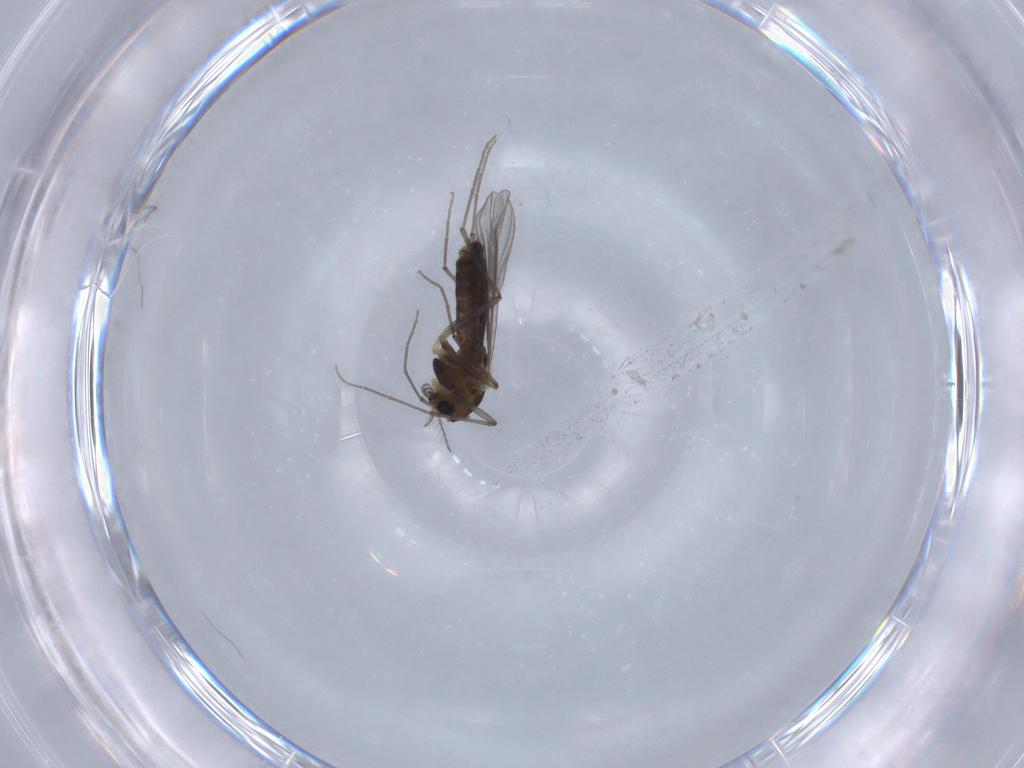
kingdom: Animalia
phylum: Arthropoda
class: Insecta
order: Diptera
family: Chironomidae
